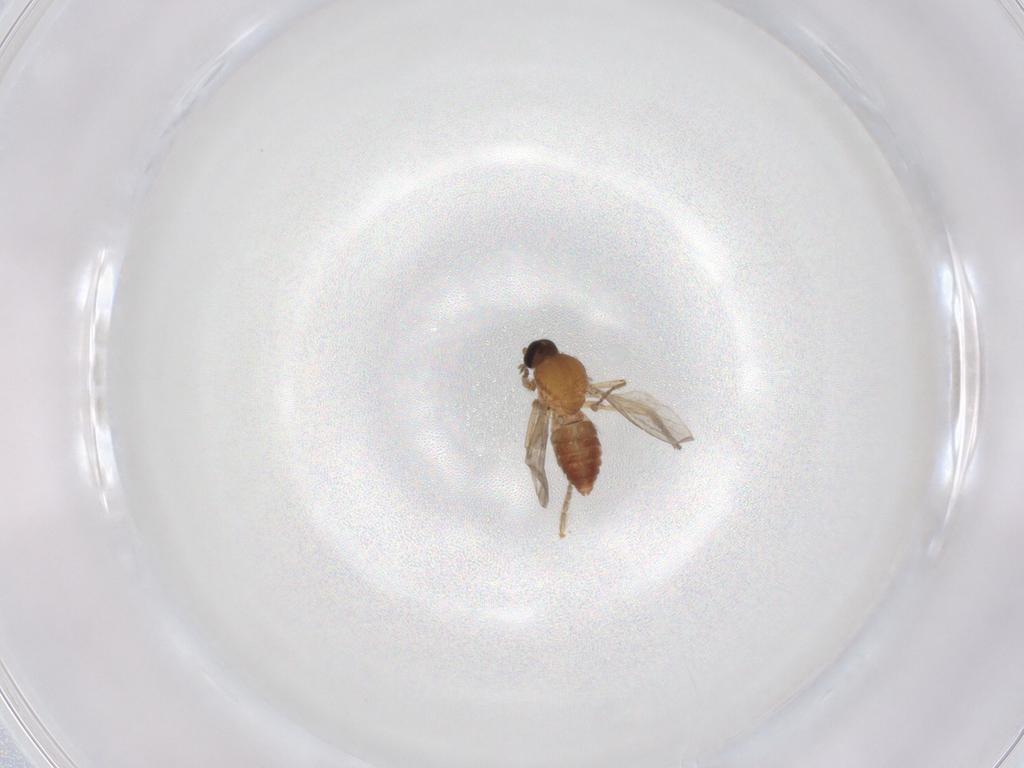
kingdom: Animalia
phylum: Arthropoda
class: Insecta
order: Diptera
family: Ceratopogonidae
